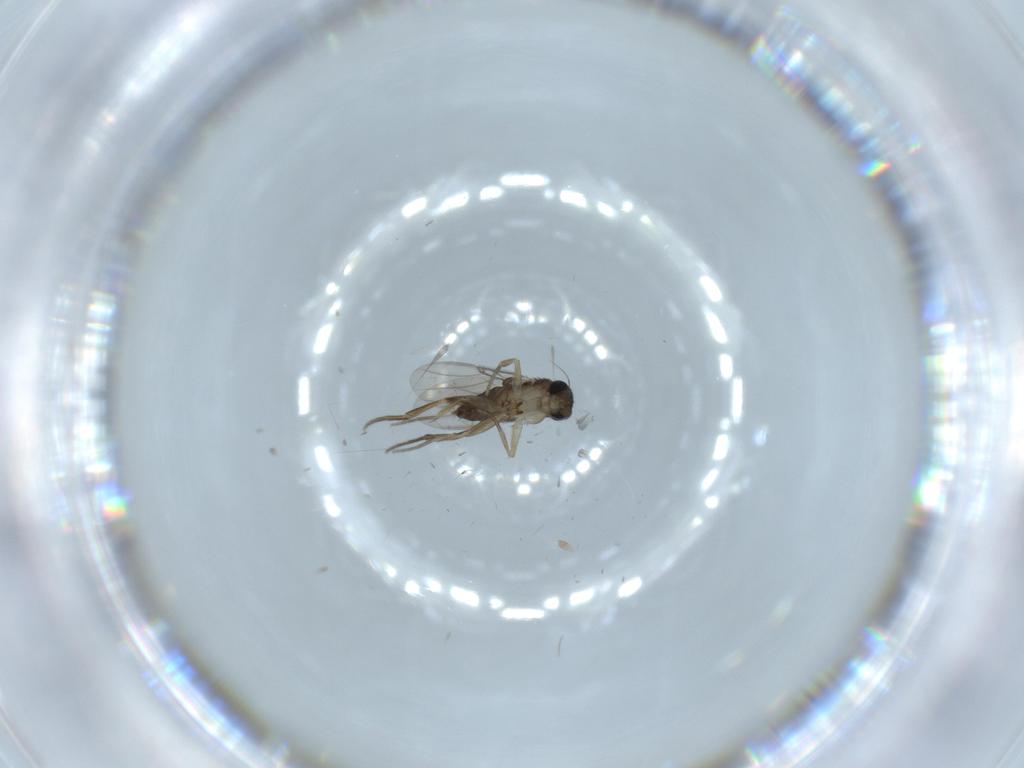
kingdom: Animalia
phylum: Arthropoda
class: Insecta
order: Diptera
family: Phoridae
